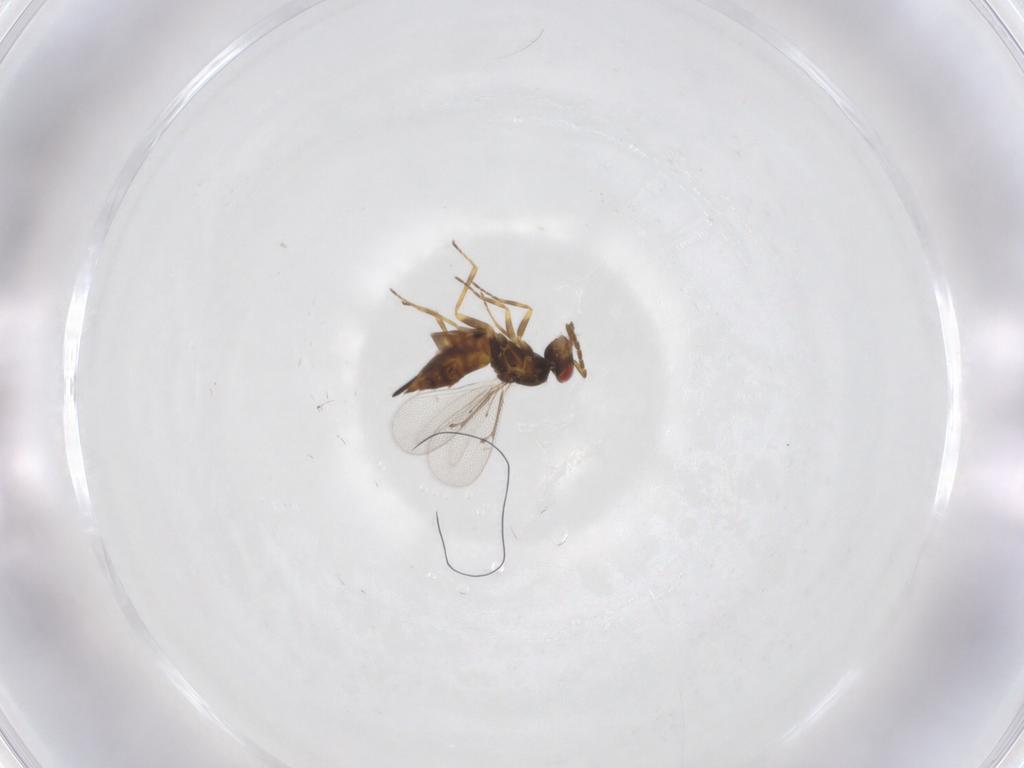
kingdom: Animalia
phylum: Arthropoda
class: Insecta
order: Hymenoptera
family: Eulophidae
